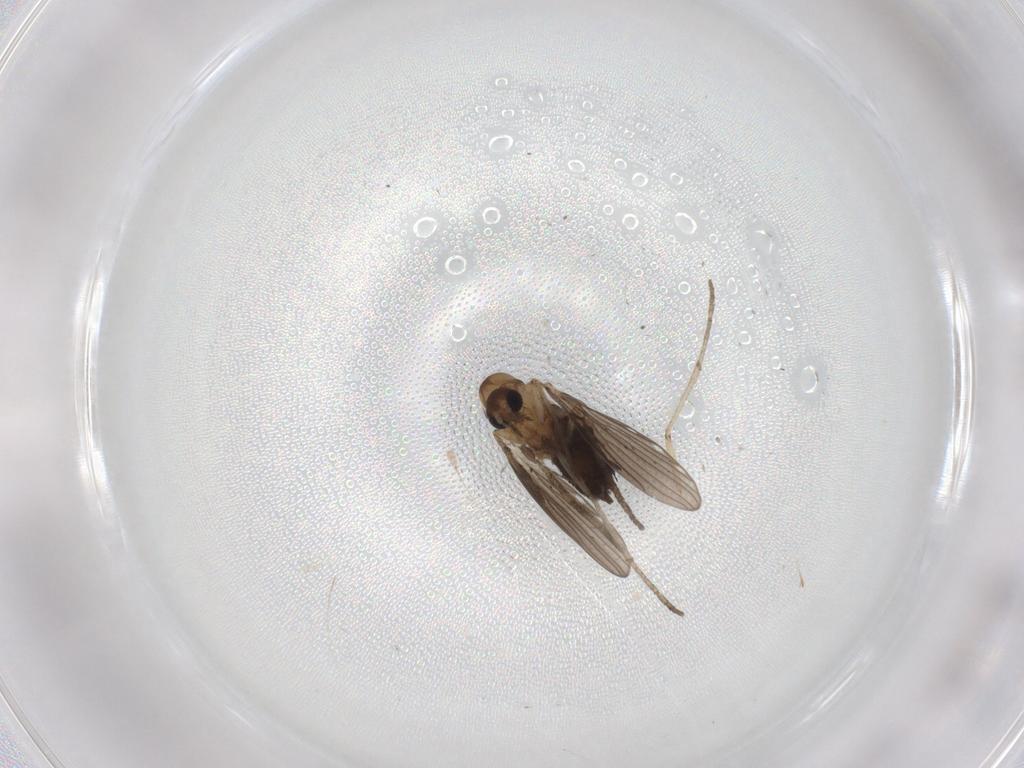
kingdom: Animalia
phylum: Arthropoda
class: Insecta
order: Diptera
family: Psychodidae
